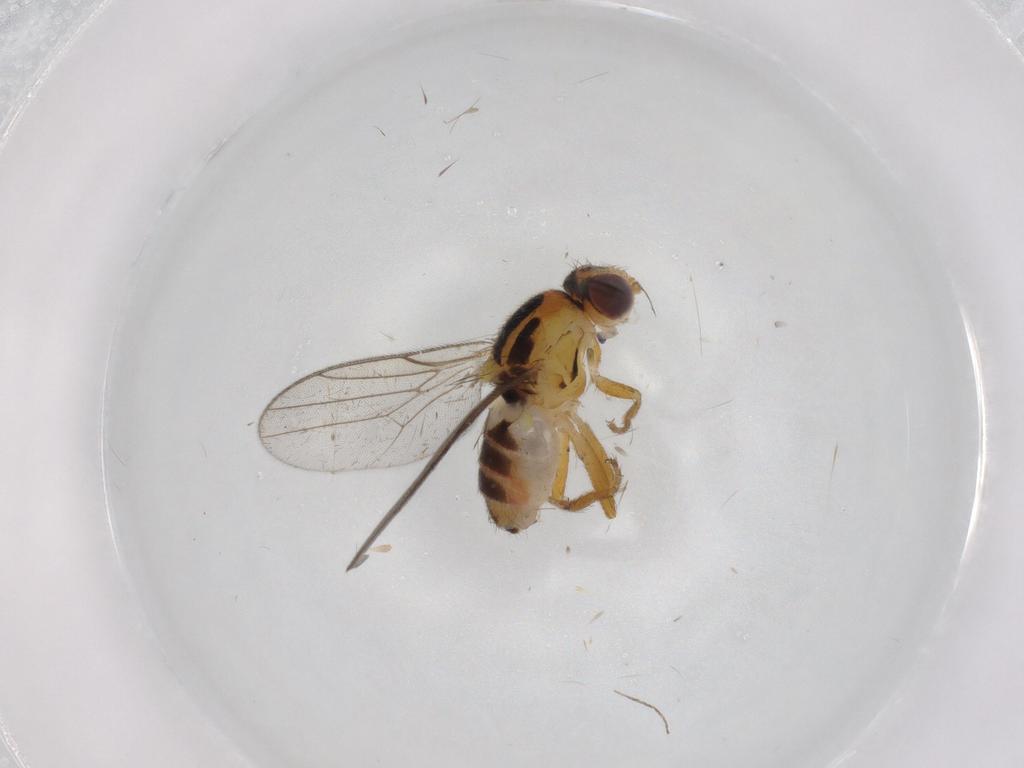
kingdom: Animalia
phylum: Arthropoda
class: Insecta
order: Diptera
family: Chloropidae
